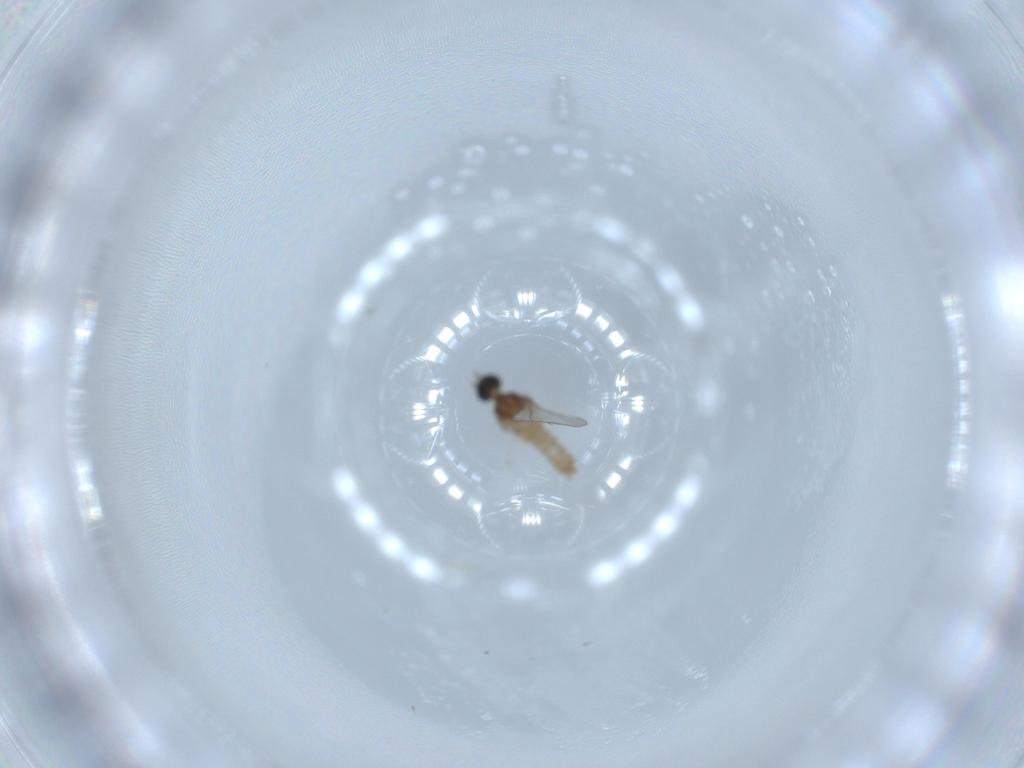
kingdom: Animalia
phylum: Arthropoda
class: Insecta
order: Diptera
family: Cecidomyiidae
